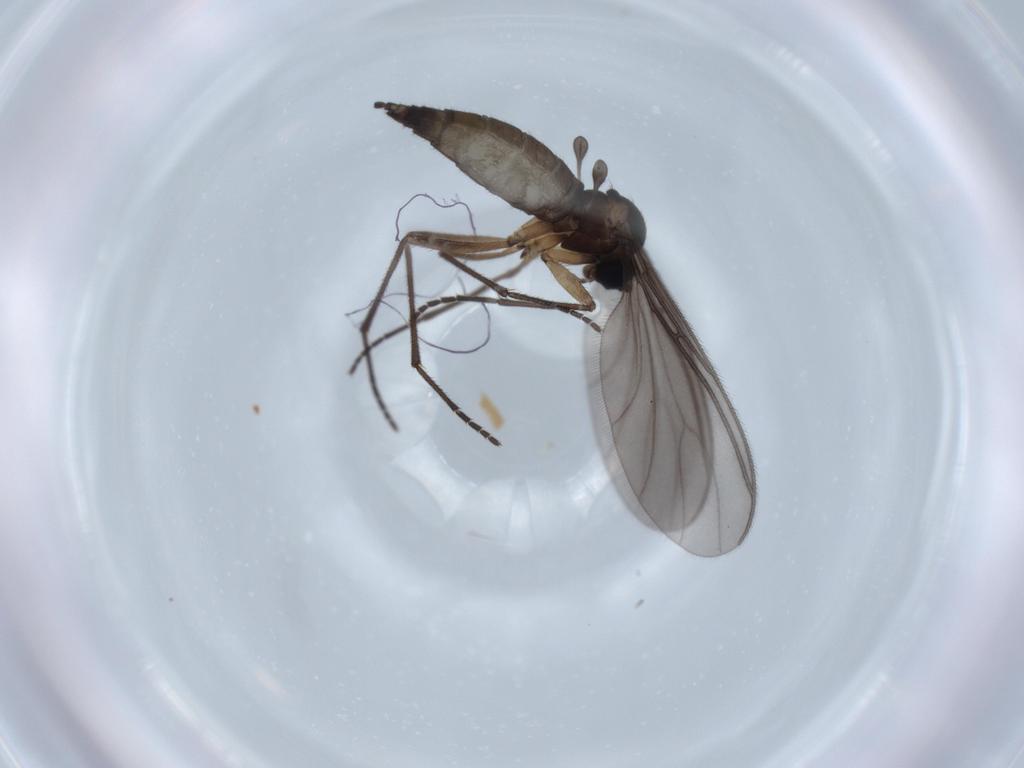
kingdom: Animalia
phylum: Arthropoda
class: Insecta
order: Diptera
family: Sciaridae
